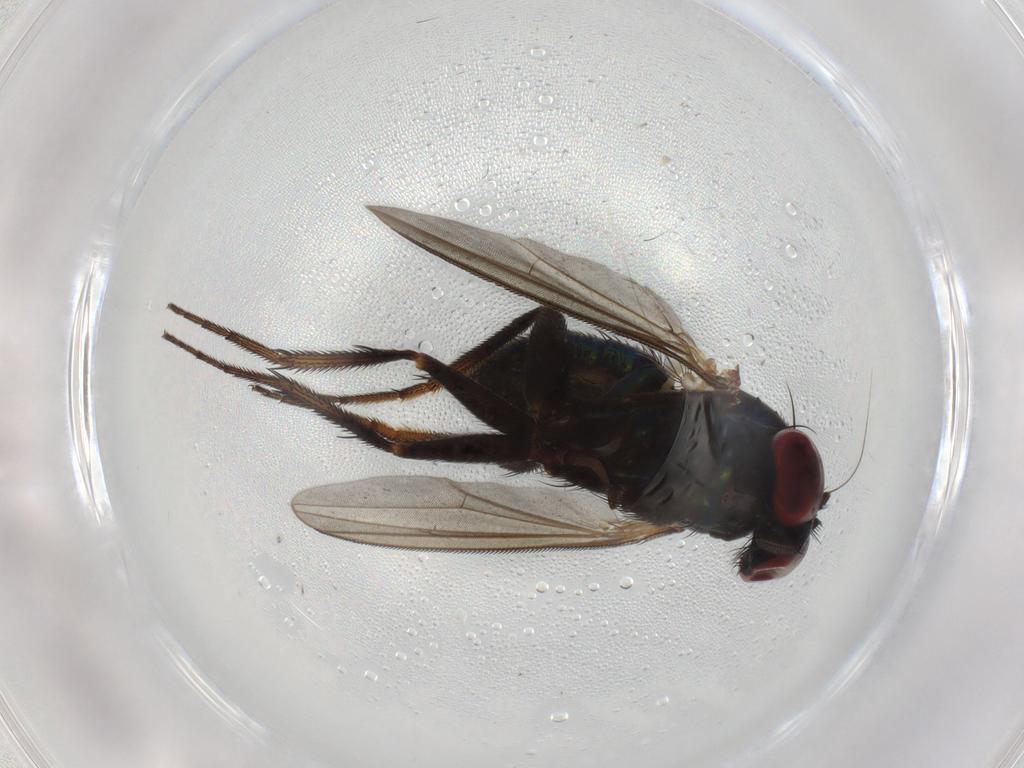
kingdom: Animalia
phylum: Arthropoda
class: Insecta
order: Diptera
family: Dolichopodidae
